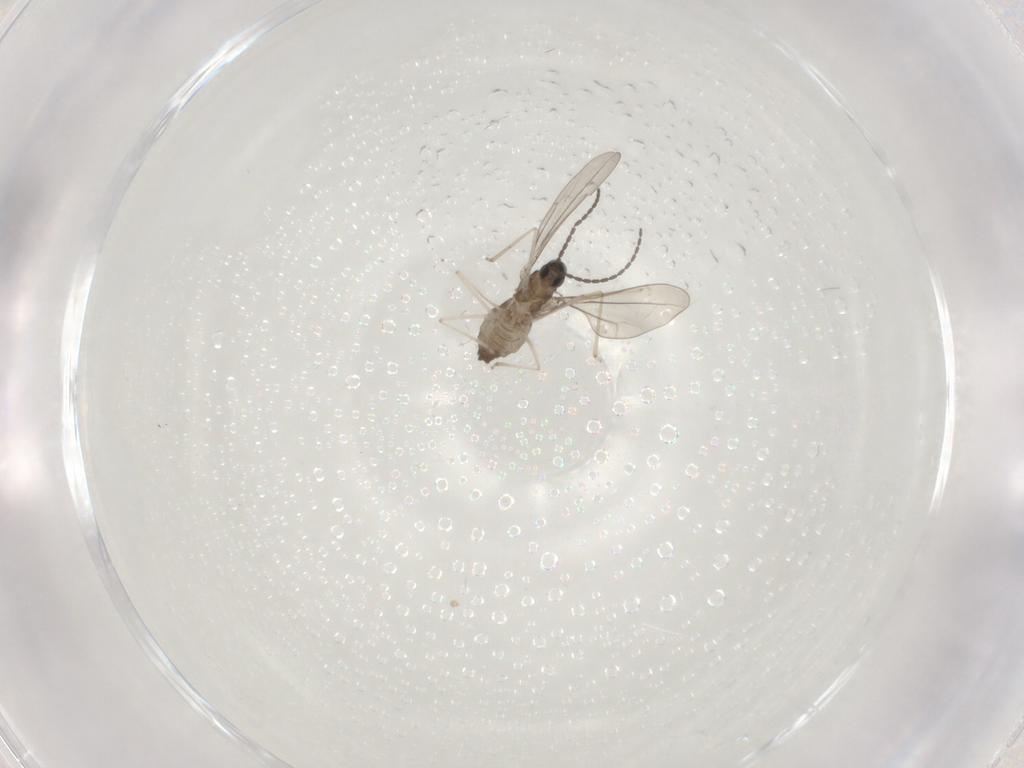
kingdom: Animalia
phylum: Arthropoda
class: Insecta
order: Diptera
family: Cecidomyiidae
